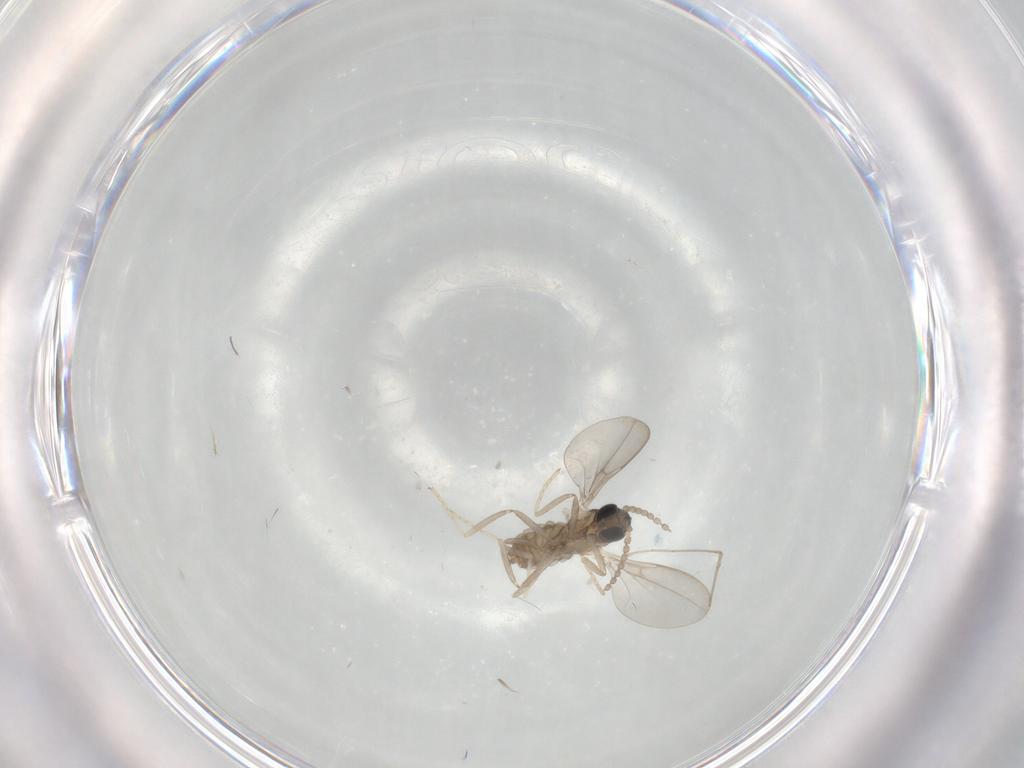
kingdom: Animalia
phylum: Arthropoda
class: Insecta
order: Diptera
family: Cecidomyiidae
